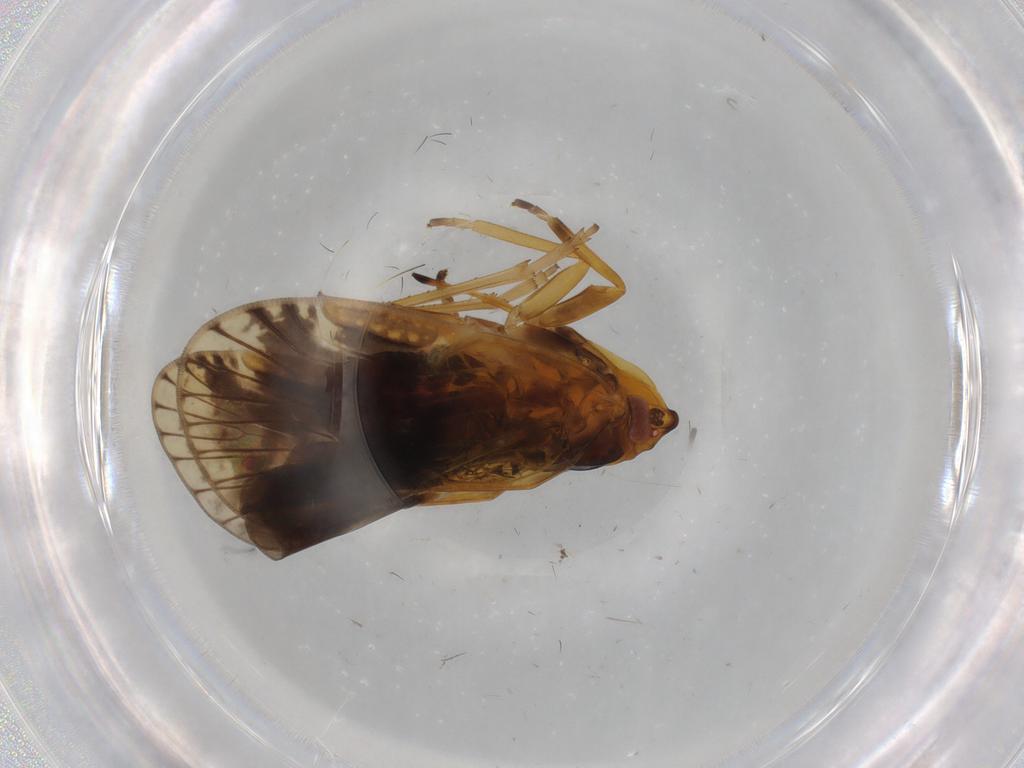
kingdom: Animalia
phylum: Arthropoda
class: Insecta
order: Hemiptera
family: Cixiidae
